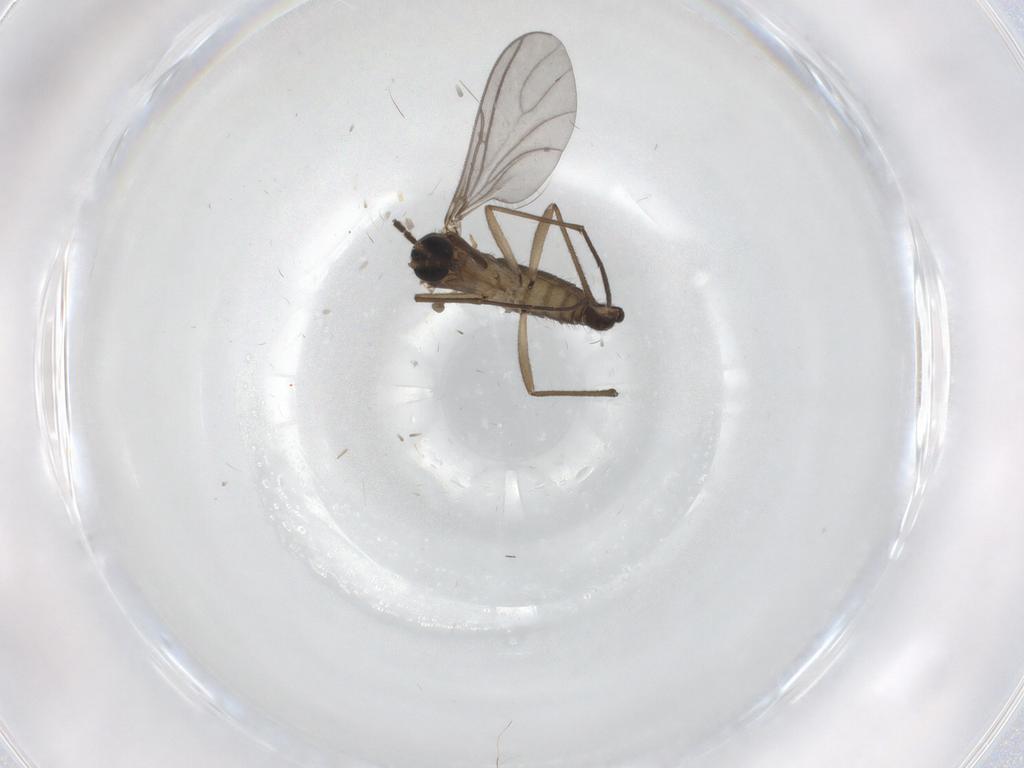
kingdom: Animalia
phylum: Arthropoda
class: Insecta
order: Diptera
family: Sciaridae
